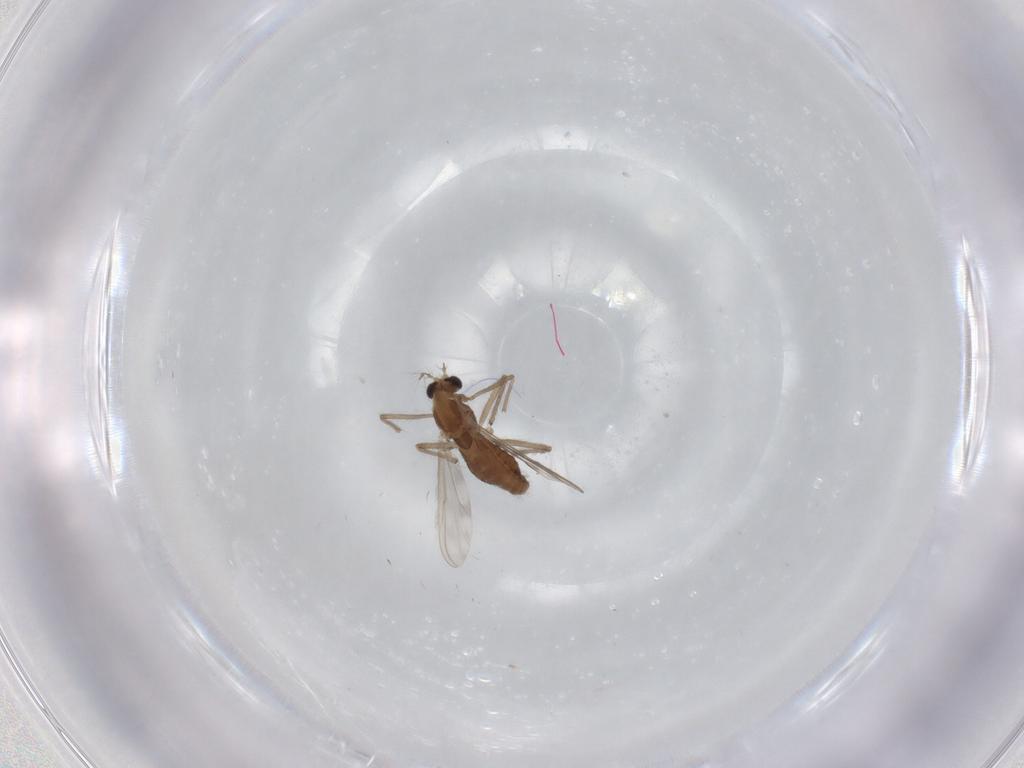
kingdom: Animalia
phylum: Arthropoda
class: Insecta
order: Diptera
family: Chironomidae
